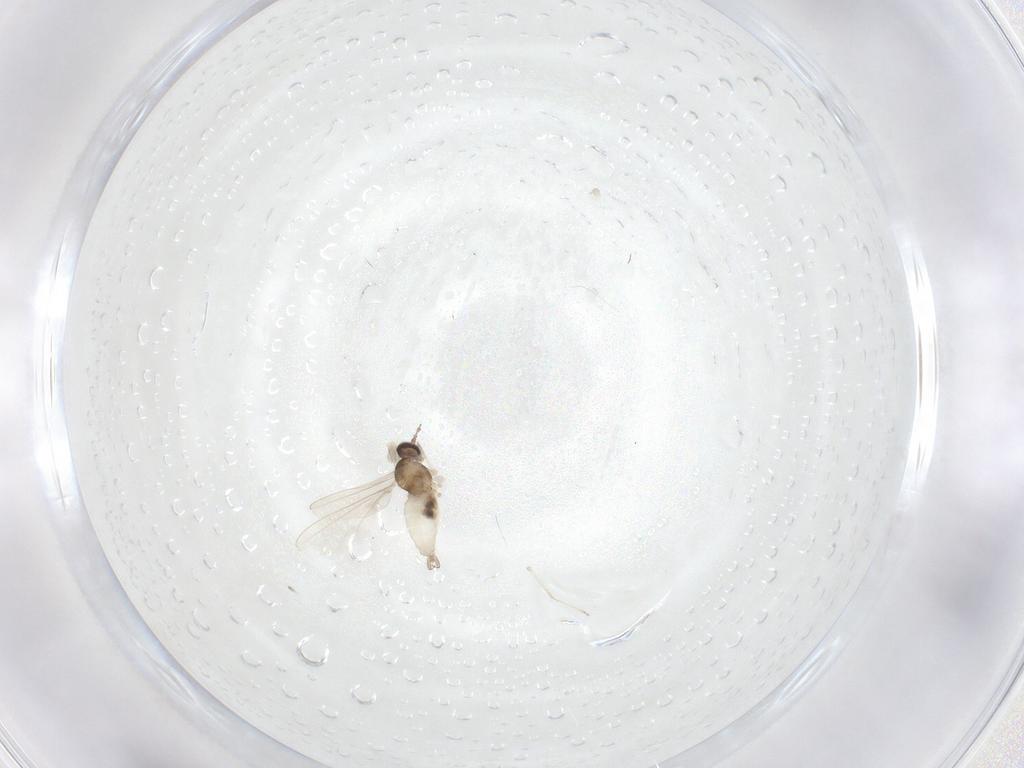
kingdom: Animalia
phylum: Arthropoda
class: Insecta
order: Diptera
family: Cecidomyiidae
